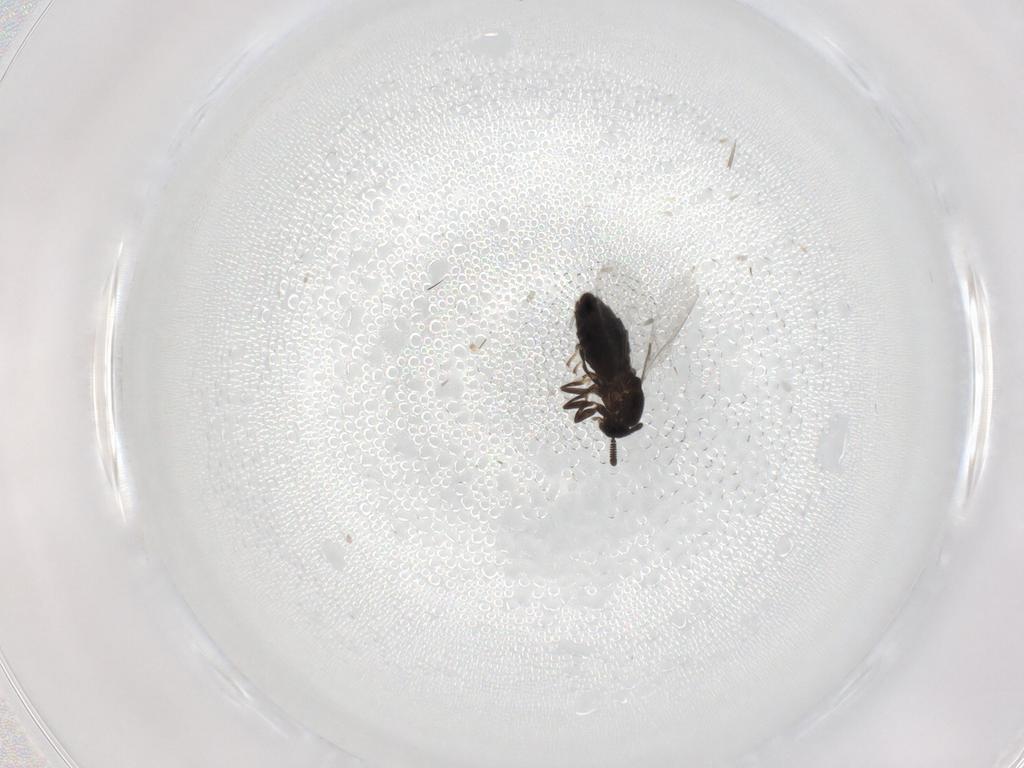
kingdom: Animalia
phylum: Arthropoda
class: Insecta
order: Diptera
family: Scatopsidae
